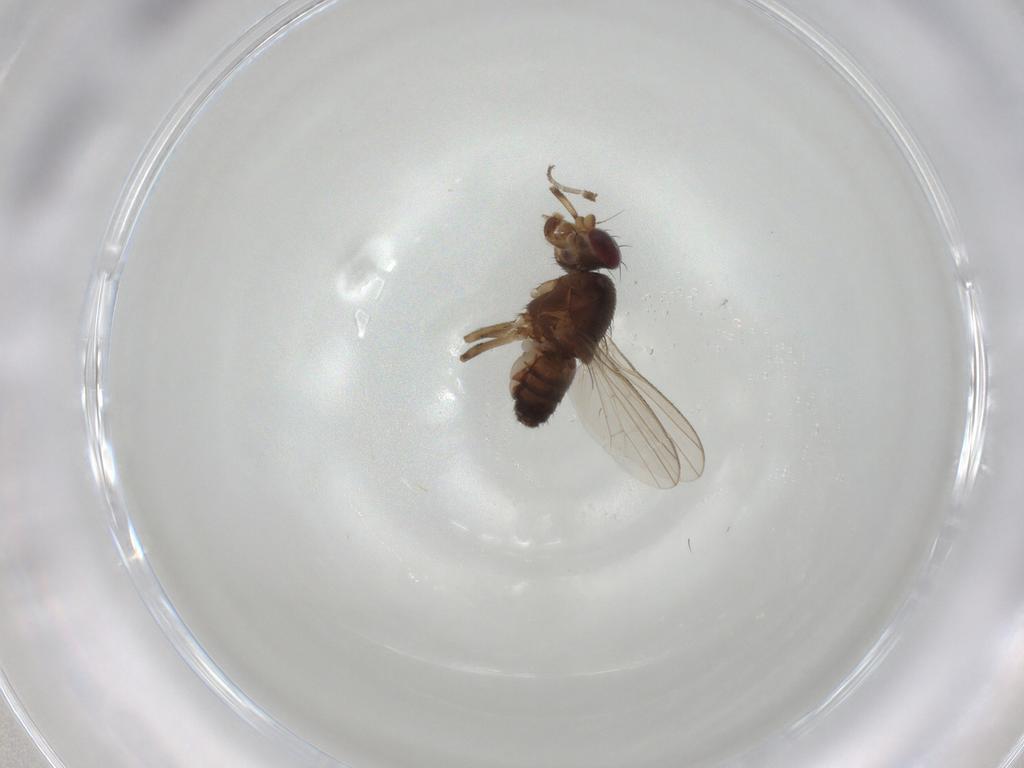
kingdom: Animalia
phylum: Arthropoda
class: Insecta
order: Diptera
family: Heleomyzidae
